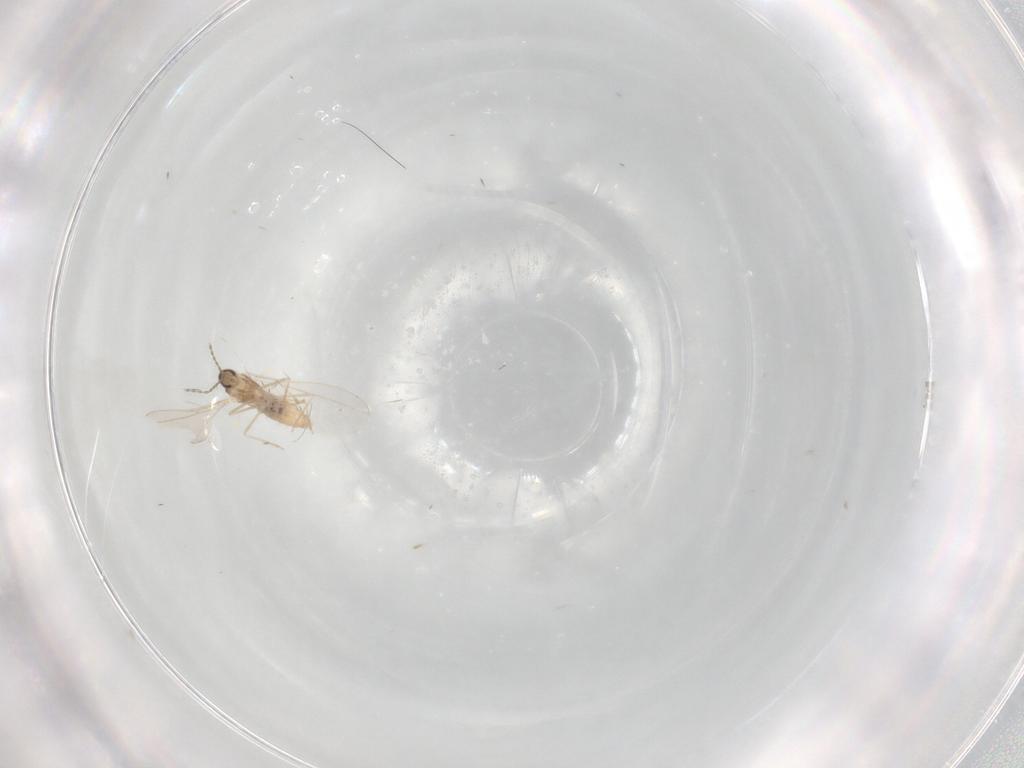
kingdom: Animalia
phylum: Arthropoda
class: Insecta
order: Diptera
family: Cecidomyiidae
